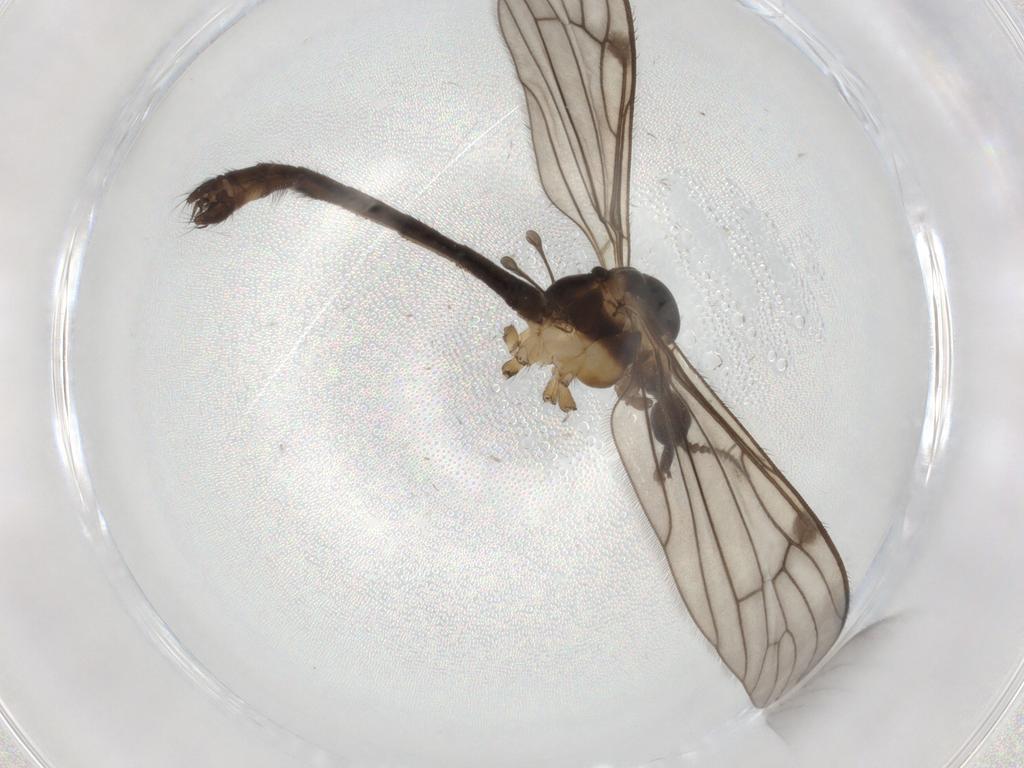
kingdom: Animalia
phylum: Arthropoda
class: Insecta
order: Diptera
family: Limoniidae
